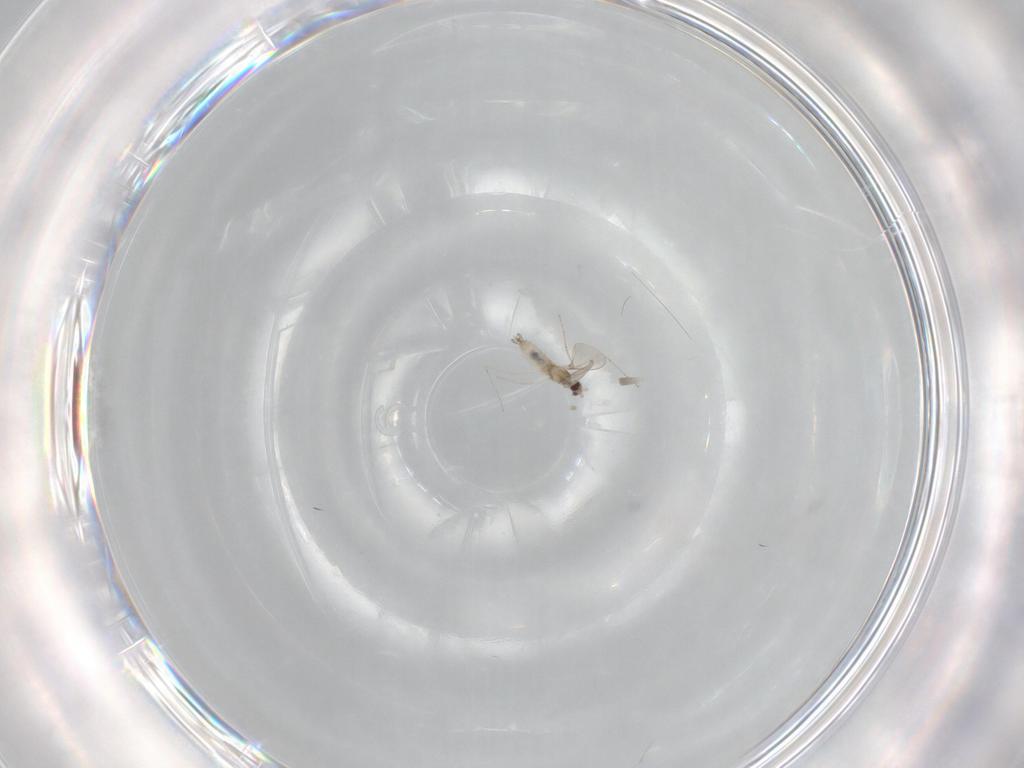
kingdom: Animalia
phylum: Arthropoda
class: Insecta
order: Diptera
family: Cecidomyiidae
